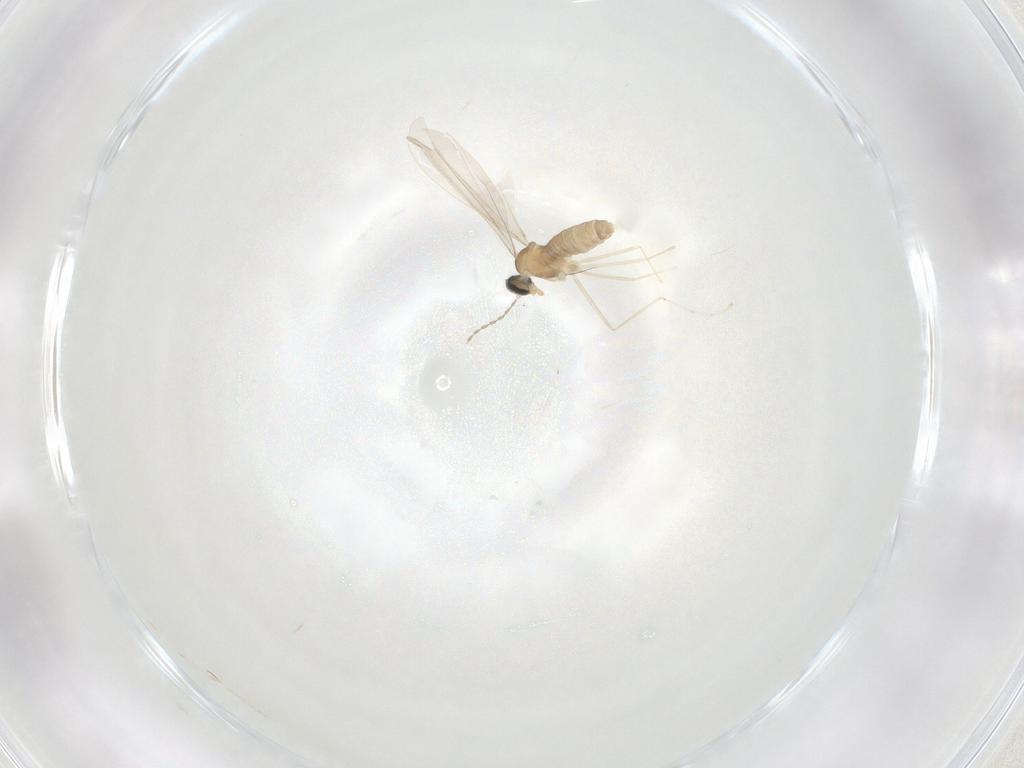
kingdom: Animalia
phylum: Arthropoda
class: Insecta
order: Diptera
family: Cecidomyiidae
